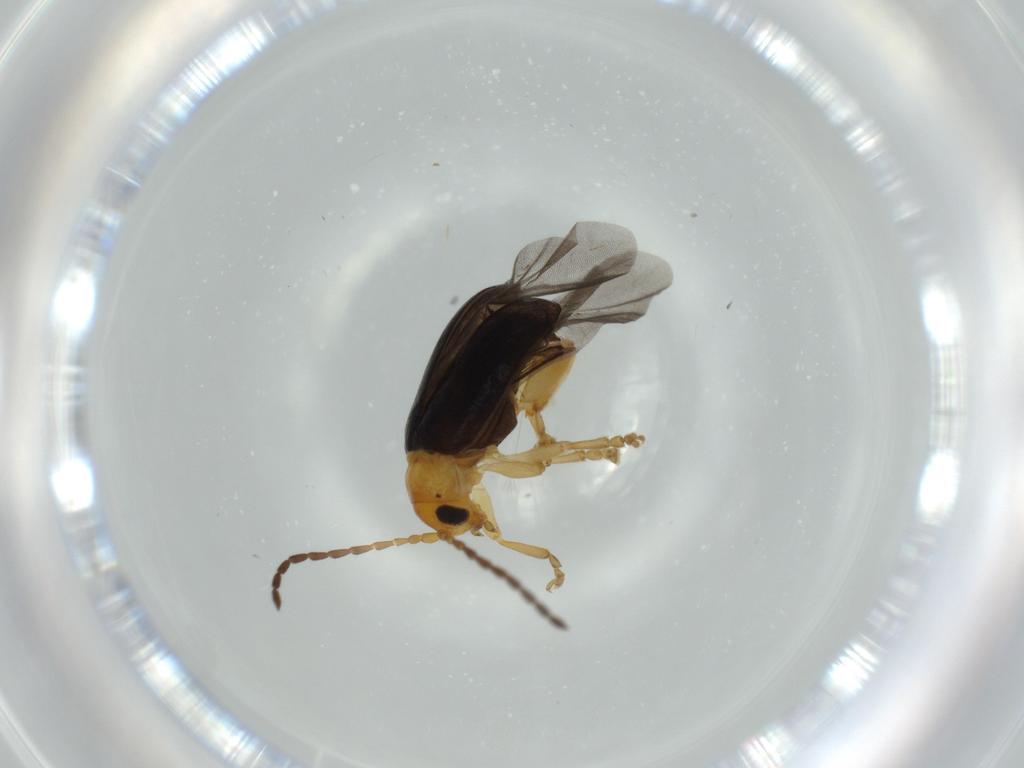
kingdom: Animalia
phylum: Arthropoda
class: Insecta
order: Coleoptera
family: Chrysomelidae
